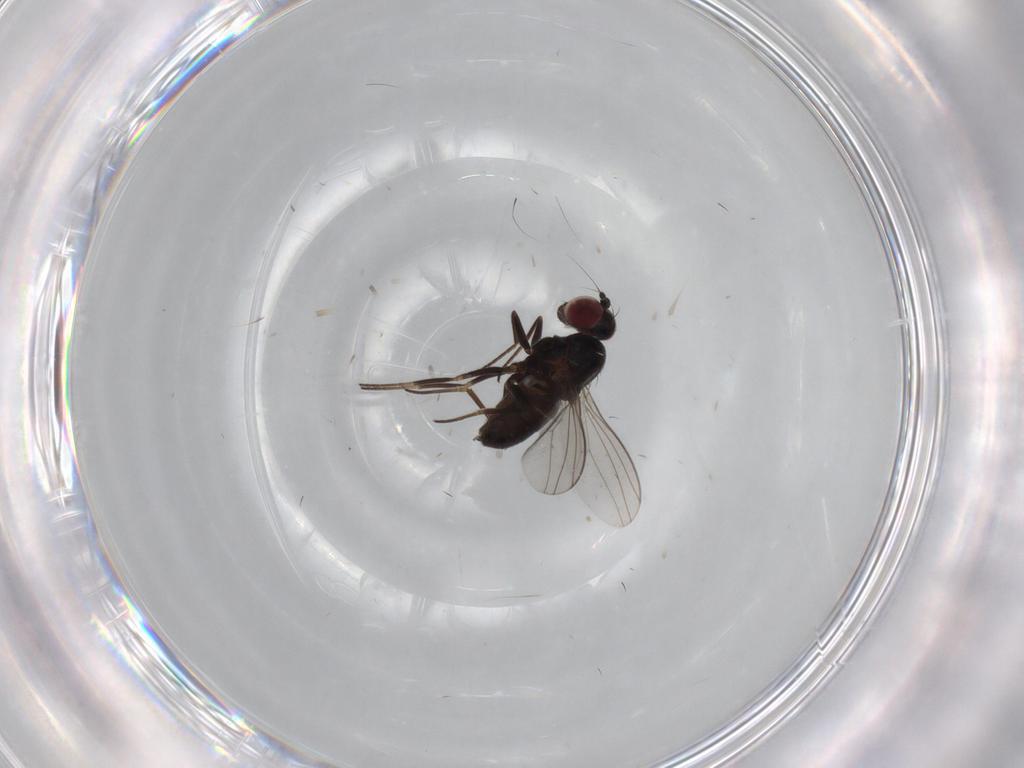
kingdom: Animalia
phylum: Arthropoda
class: Insecta
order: Diptera
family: Dolichopodidae
